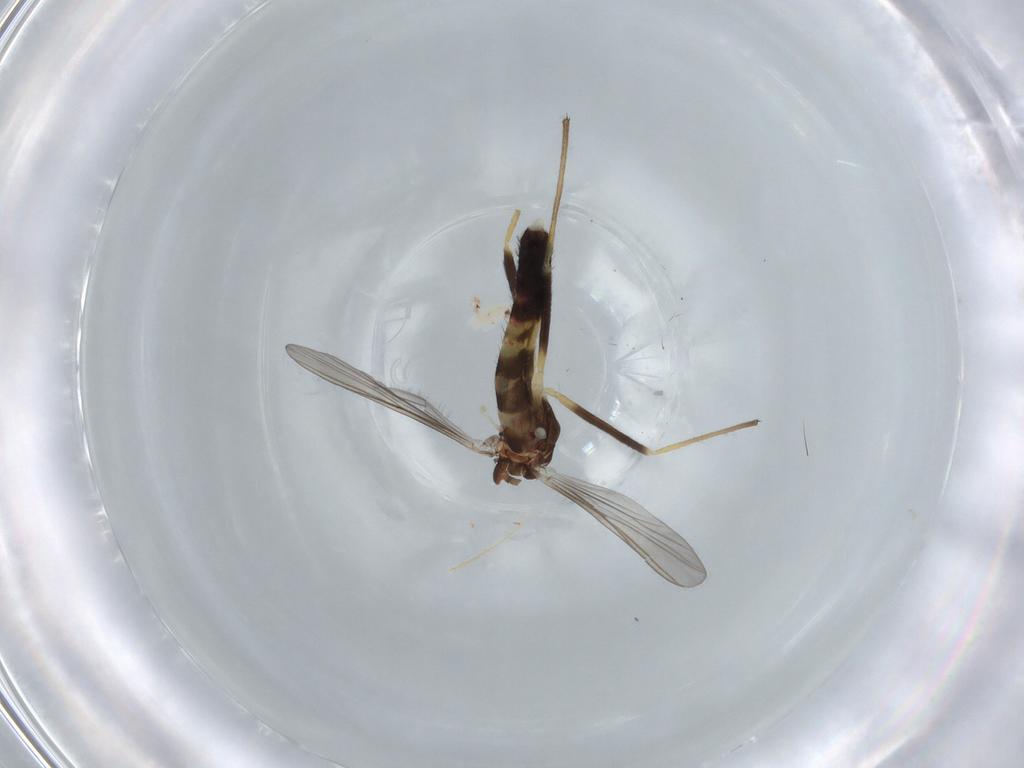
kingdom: Animalia
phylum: Arthropoda
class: Insecta
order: Diptera
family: Chironomidae
